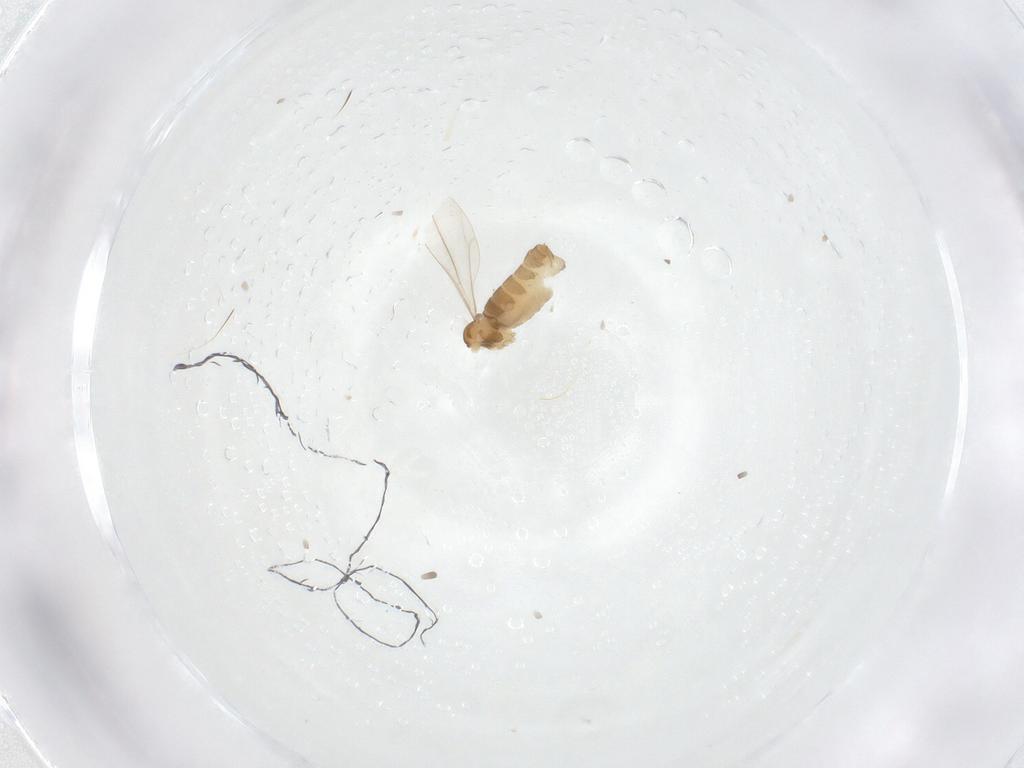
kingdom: Animalia
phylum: Arthropoda
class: Insecta
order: Diptera
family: Cecidomyiidae
